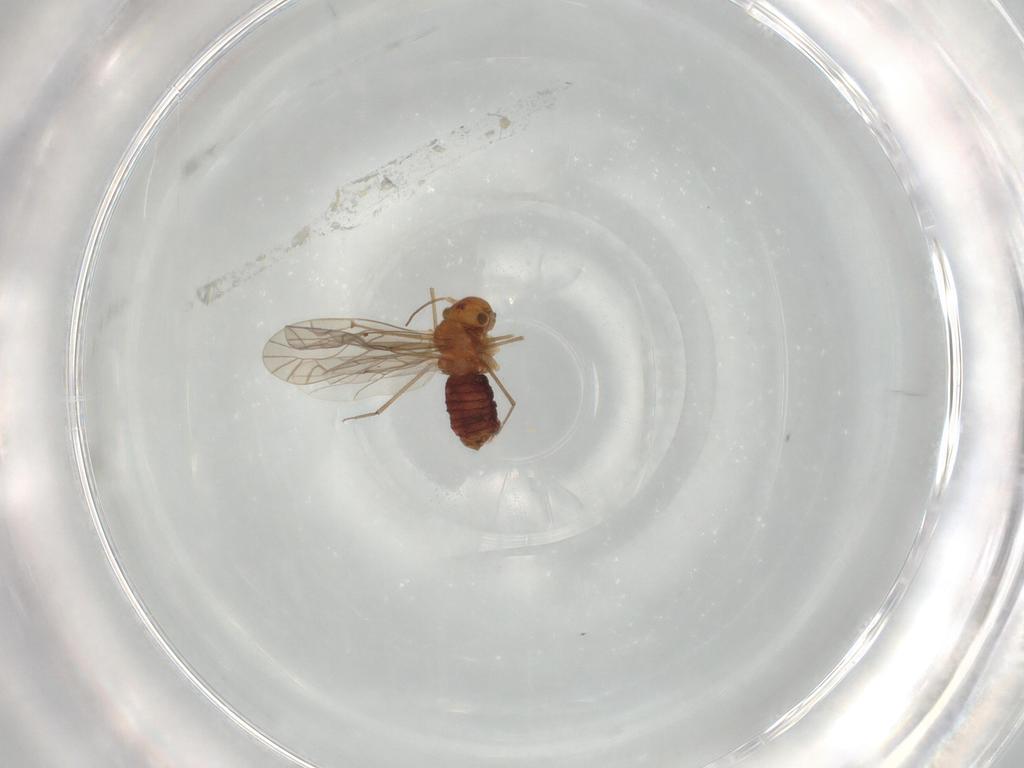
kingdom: Animalia
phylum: Arthropoda
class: Insecta
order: Psocodea
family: Lachesillidae
